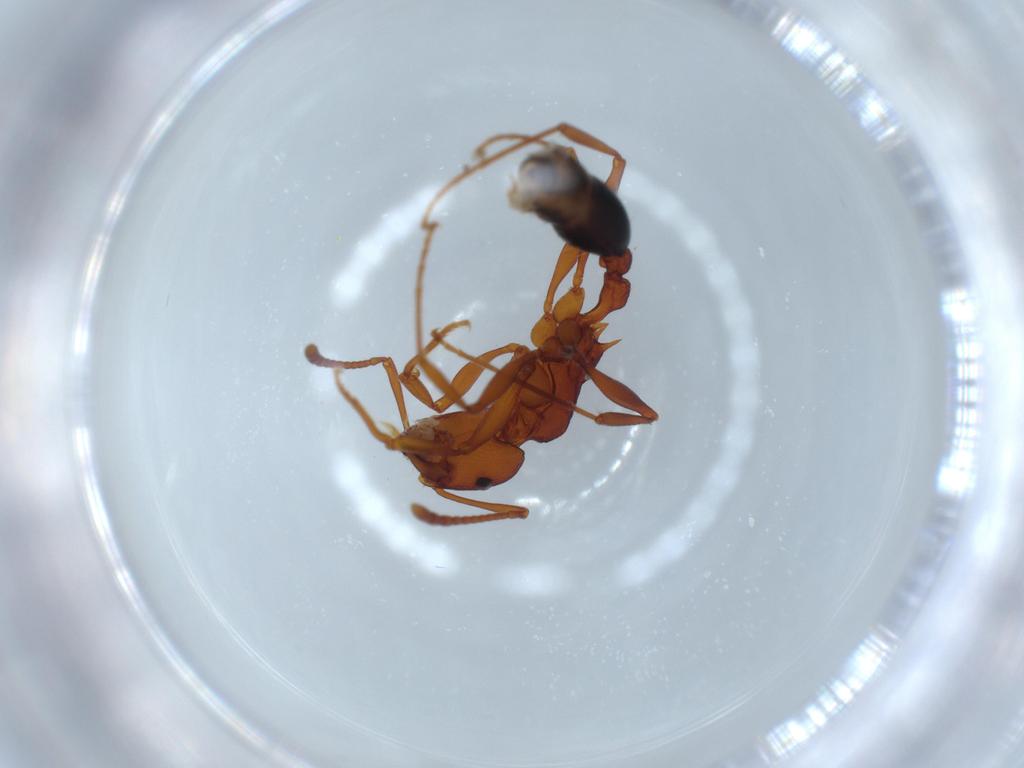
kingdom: Animalia
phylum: Arthropoda
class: Insecta
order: Hymenoptera
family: Formicidae
